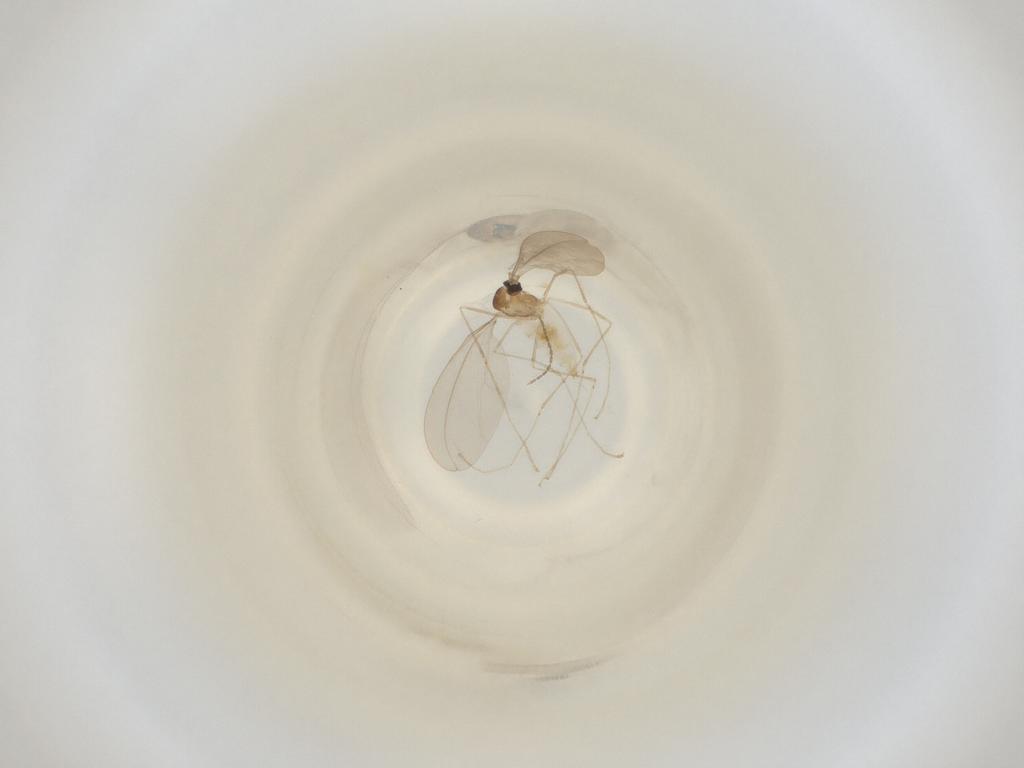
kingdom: Animalia
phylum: Arthropoda
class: Insecta
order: Diptera
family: Cecidomyiidae
